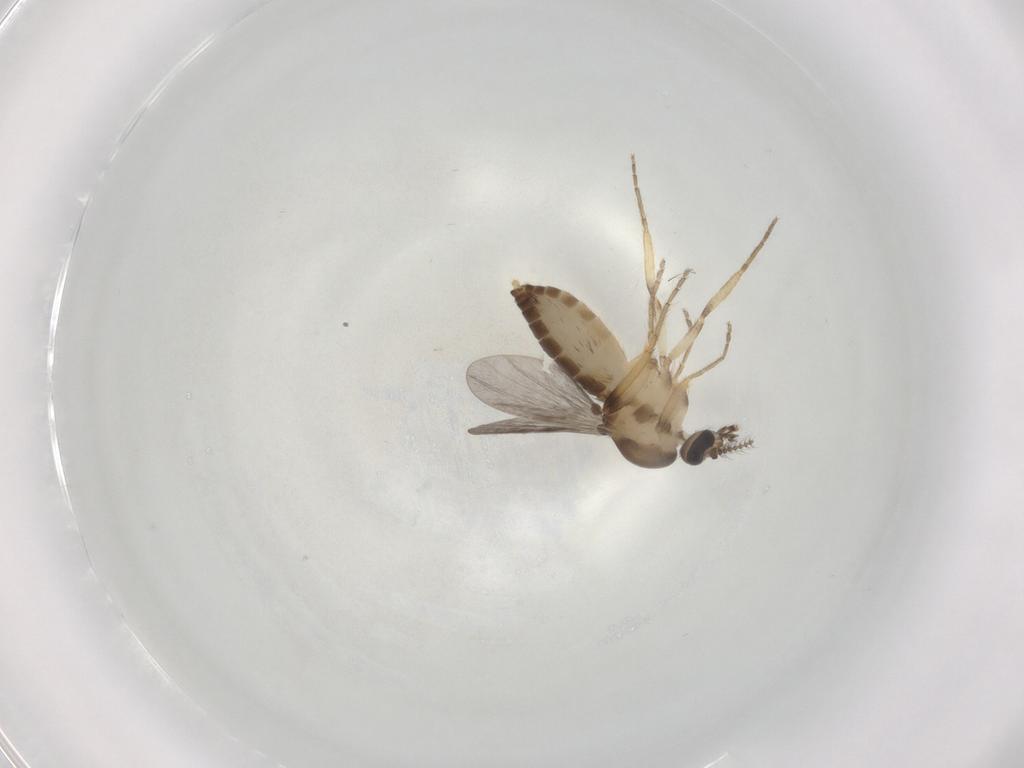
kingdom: Animalia
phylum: Arthropoda
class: Insecta
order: Diptera
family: Ceratopogonidae
